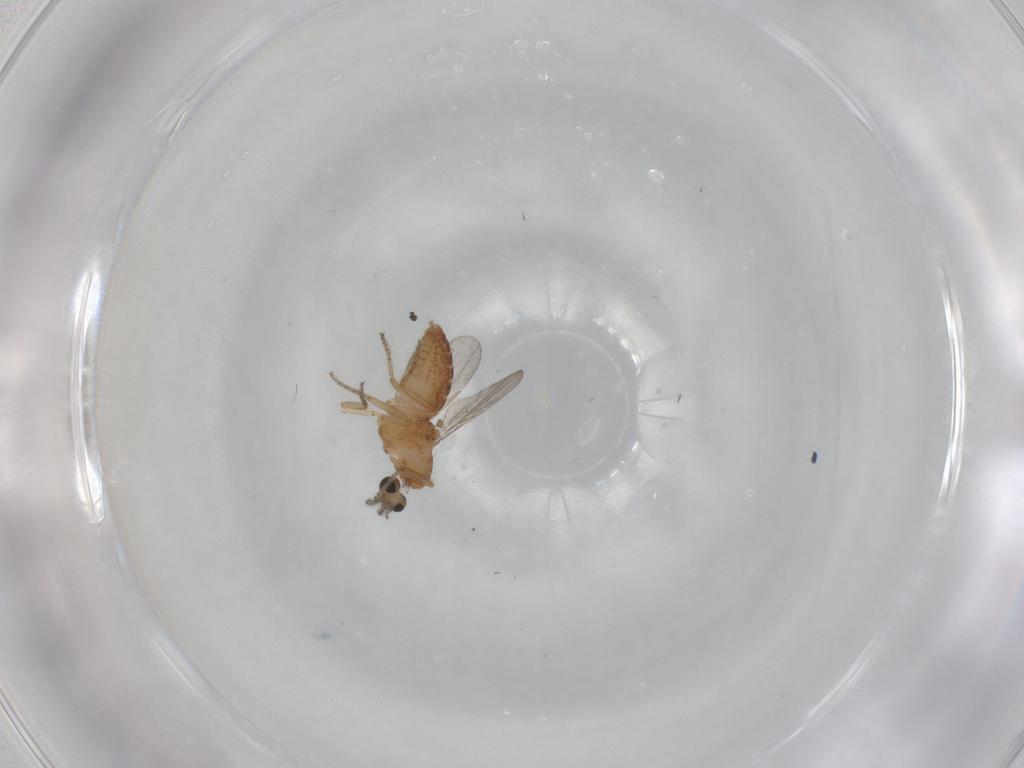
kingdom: Animalia
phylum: Arthropoda
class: Insecta
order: Diptera
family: Ceratopogonidae
